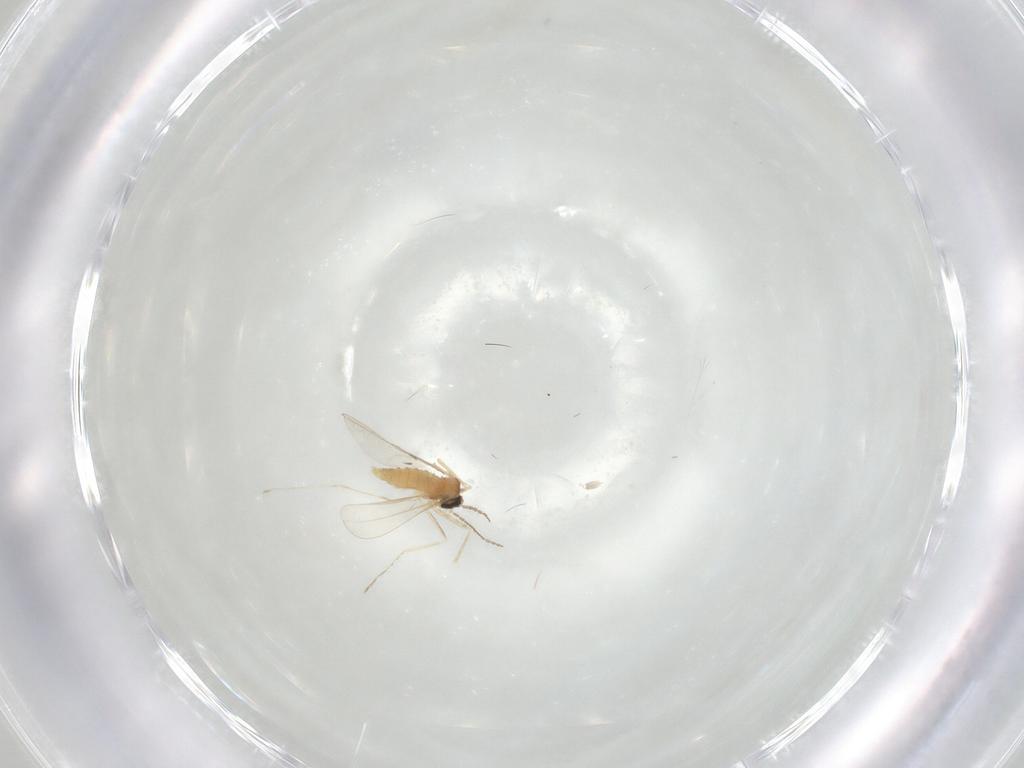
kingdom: Animalia
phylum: Arthropoda
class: Insecta
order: Diptera
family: Cecidomyiidae
